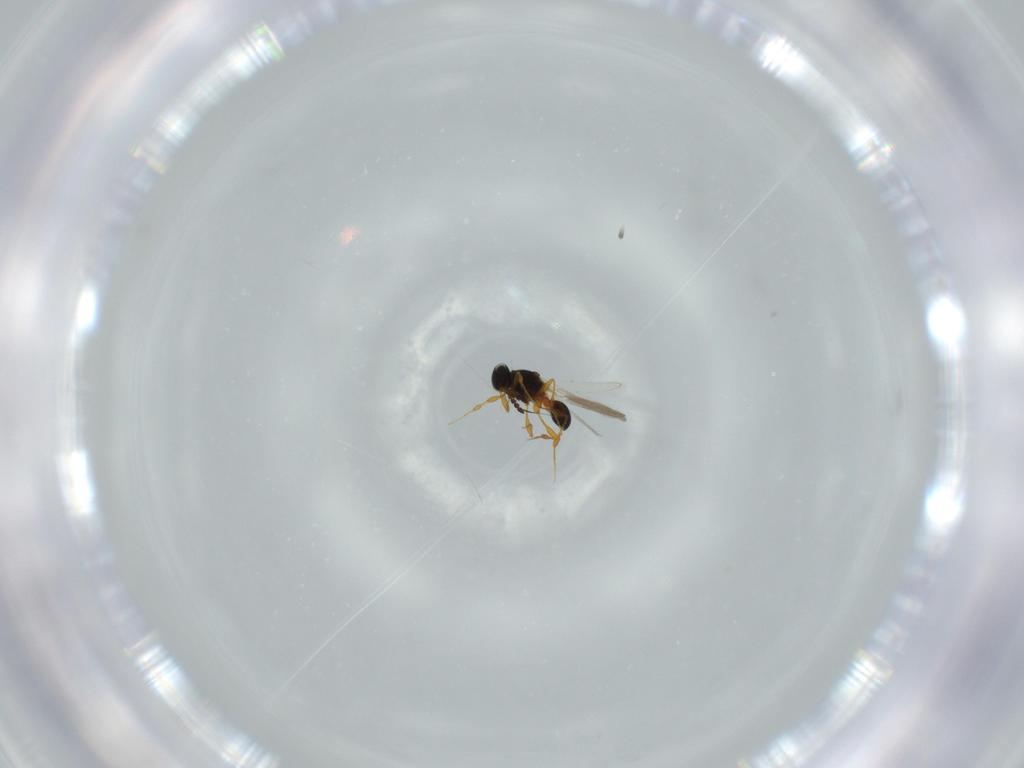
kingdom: Animalia
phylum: Arthropoda
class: Insecta
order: Hymenoptera
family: Platygastridae
